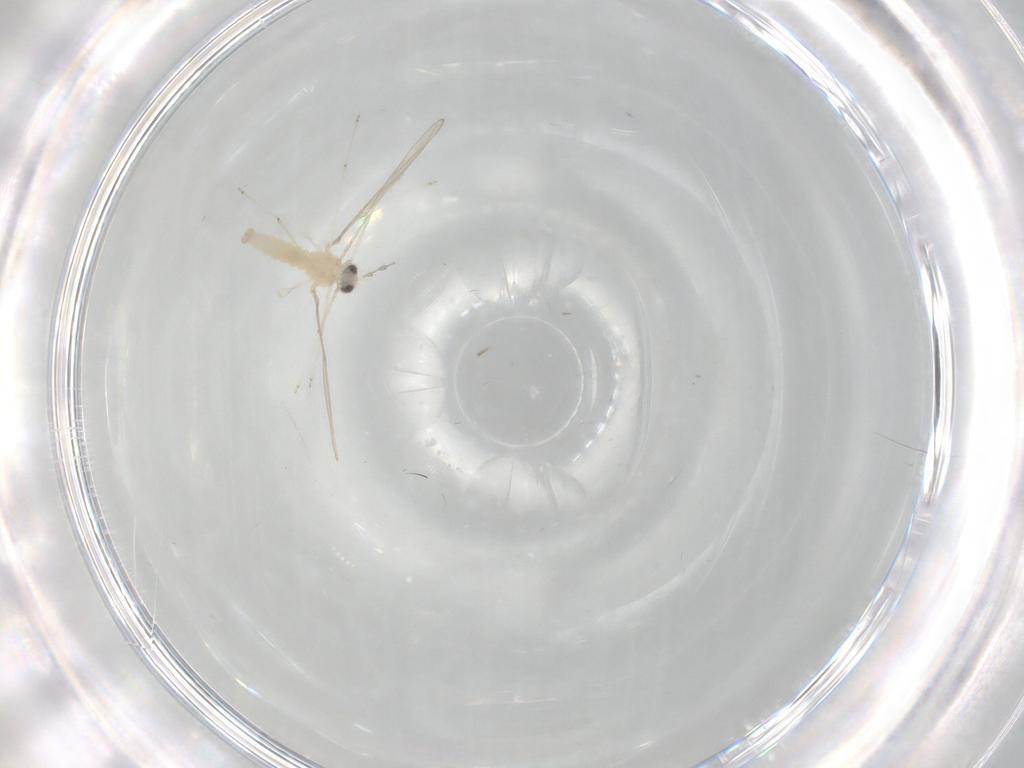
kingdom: Animalia
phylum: Arthropoda
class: Insecta
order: Diptera
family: Cecidomyiidae
